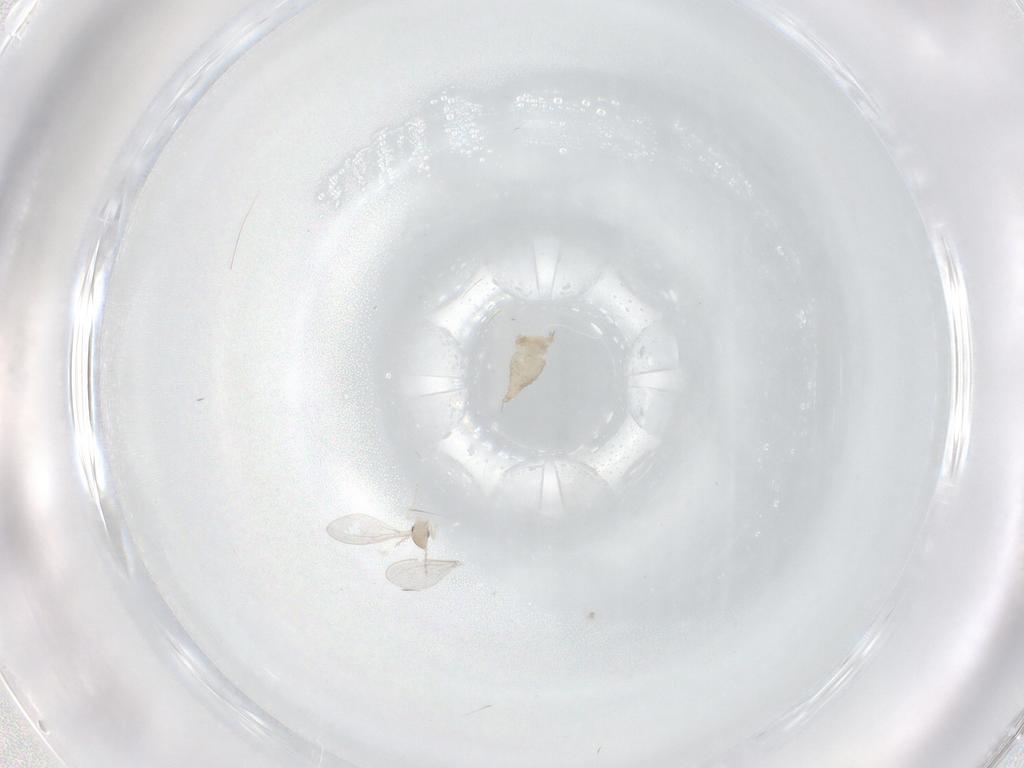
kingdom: Animalia
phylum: Arthropoda
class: Insecta
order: Diptera
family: Cecidomyiidae
